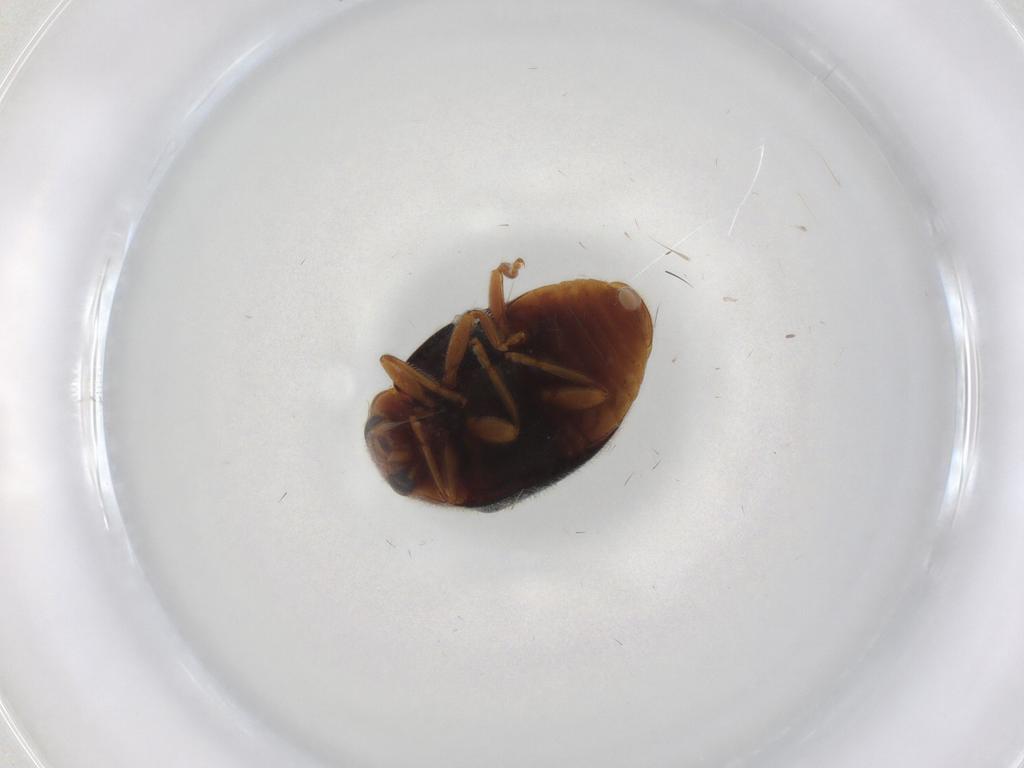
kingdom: Animalia
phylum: Arthropoda
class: Insecta
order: Coleoptera
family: Coccinellidae
